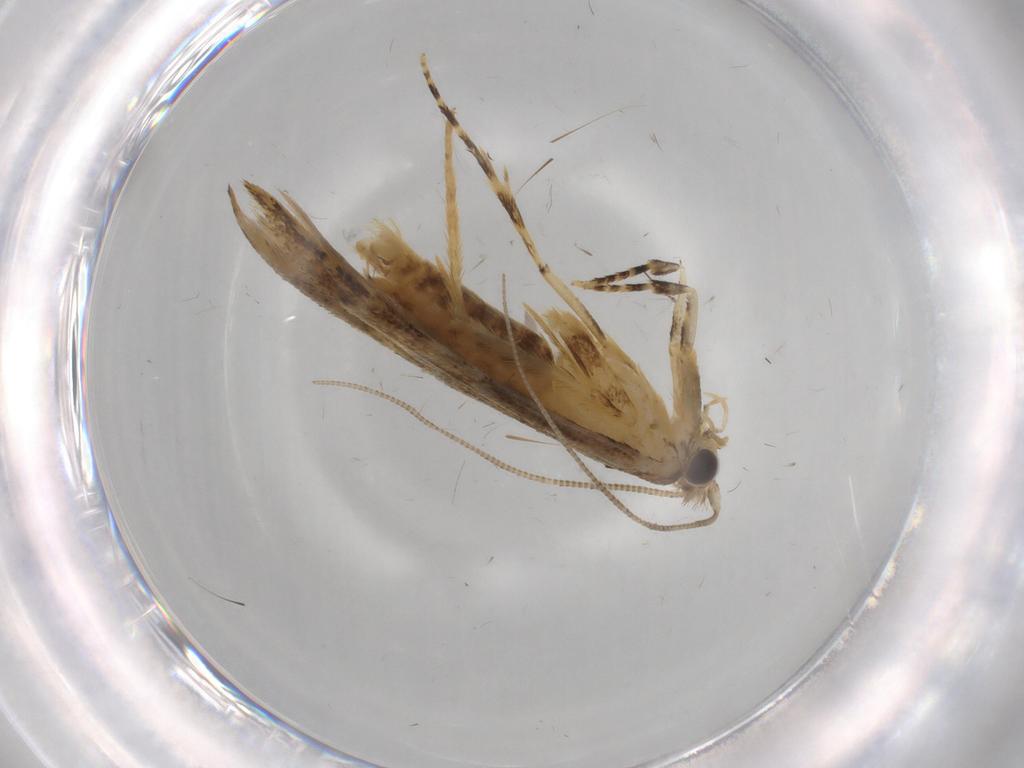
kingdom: Animalia
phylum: Arthropoda
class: Insecta
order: Lepidoptera
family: Tineidae
